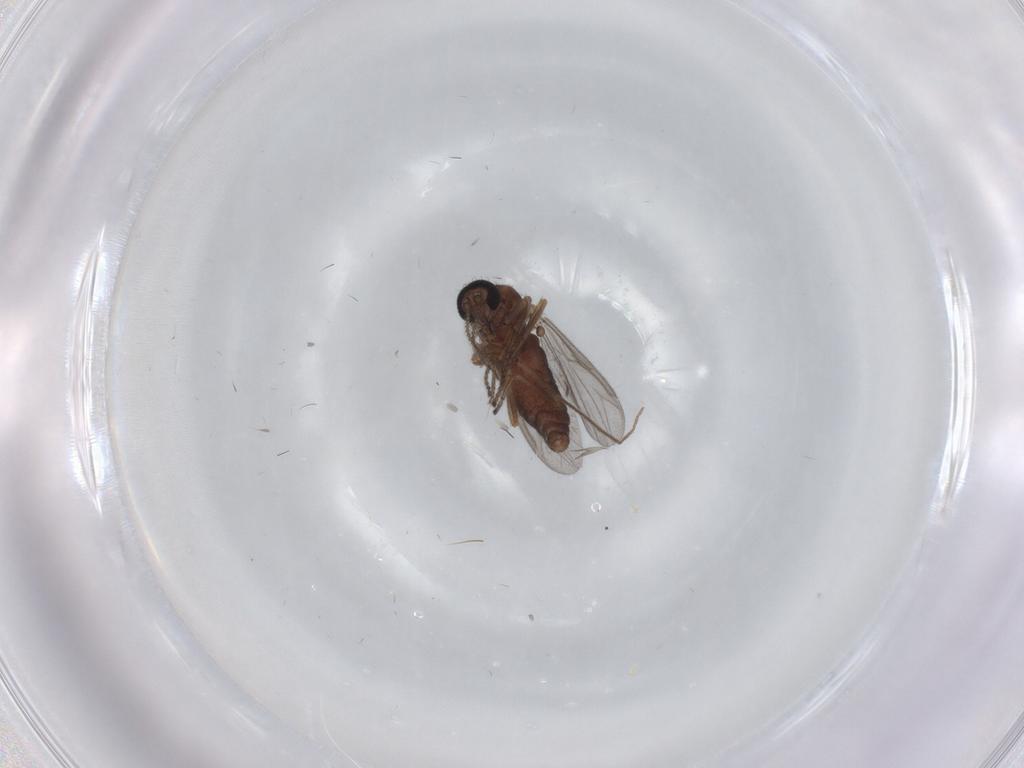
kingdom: Animalia
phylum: Arthropoda
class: Insecta
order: Diptera
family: Ceratopogonidae
